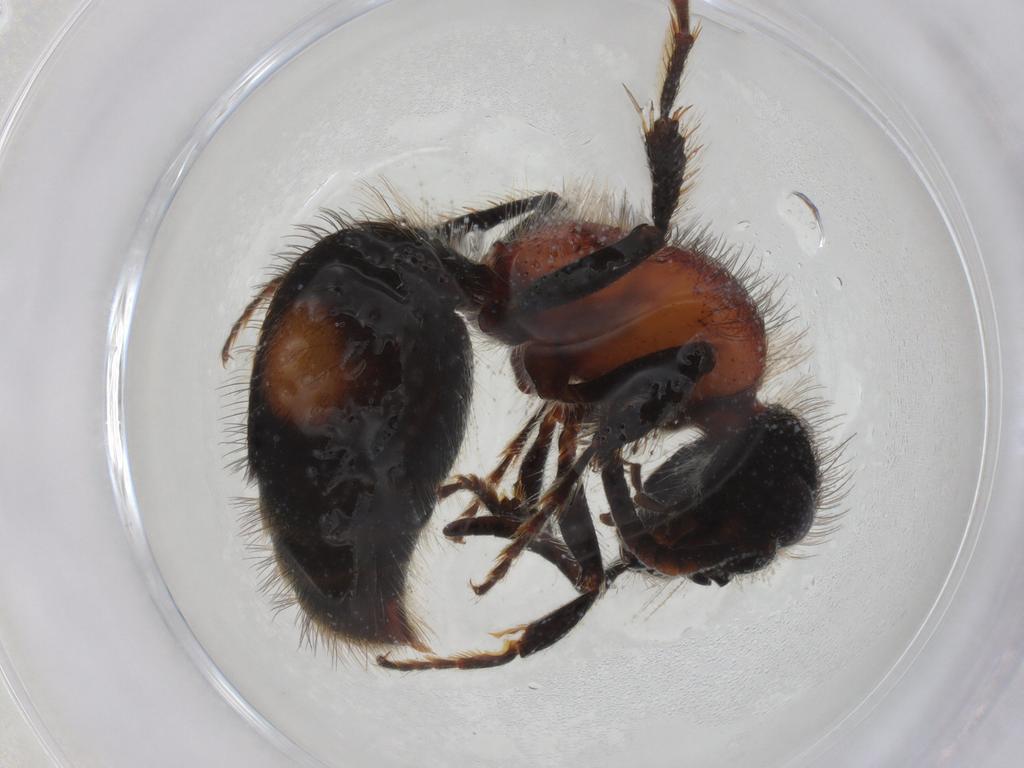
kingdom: Animalia
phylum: Arthropoda
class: Insecta
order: Hymenoptera
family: Mutillidae
